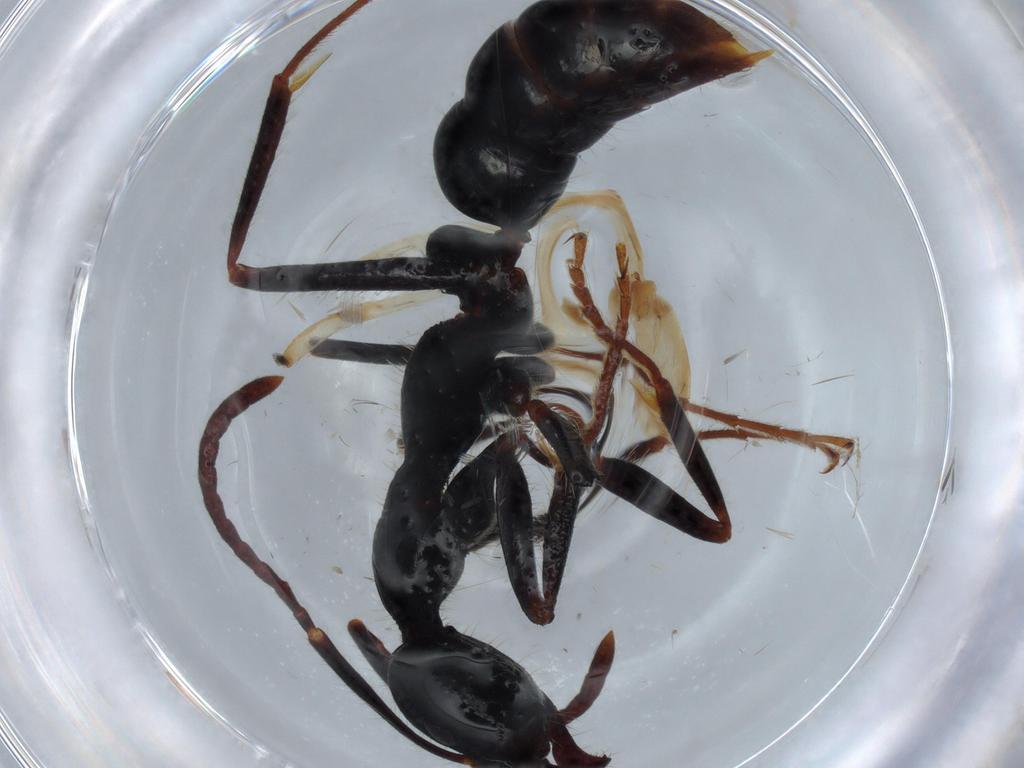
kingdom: Animalia
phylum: Arthropoda
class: Insecta
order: Hymenoptera
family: Formicidae
